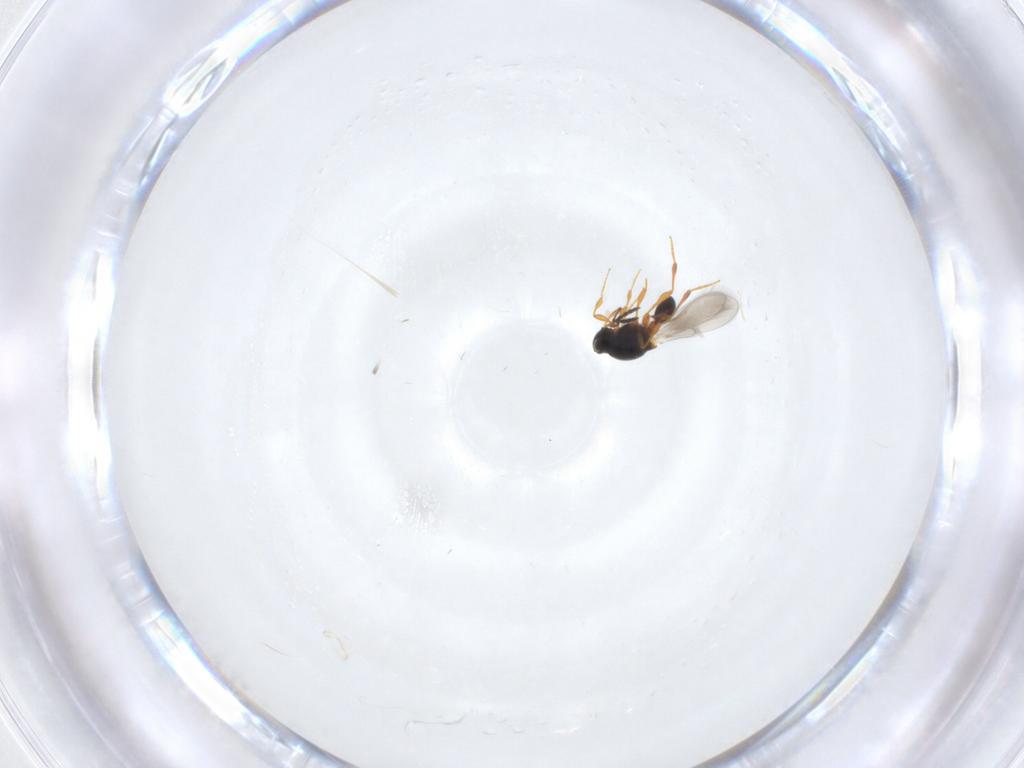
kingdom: Animalia
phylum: Arthropoda
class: Insecta
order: Hymenoptera
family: Platygastridae
